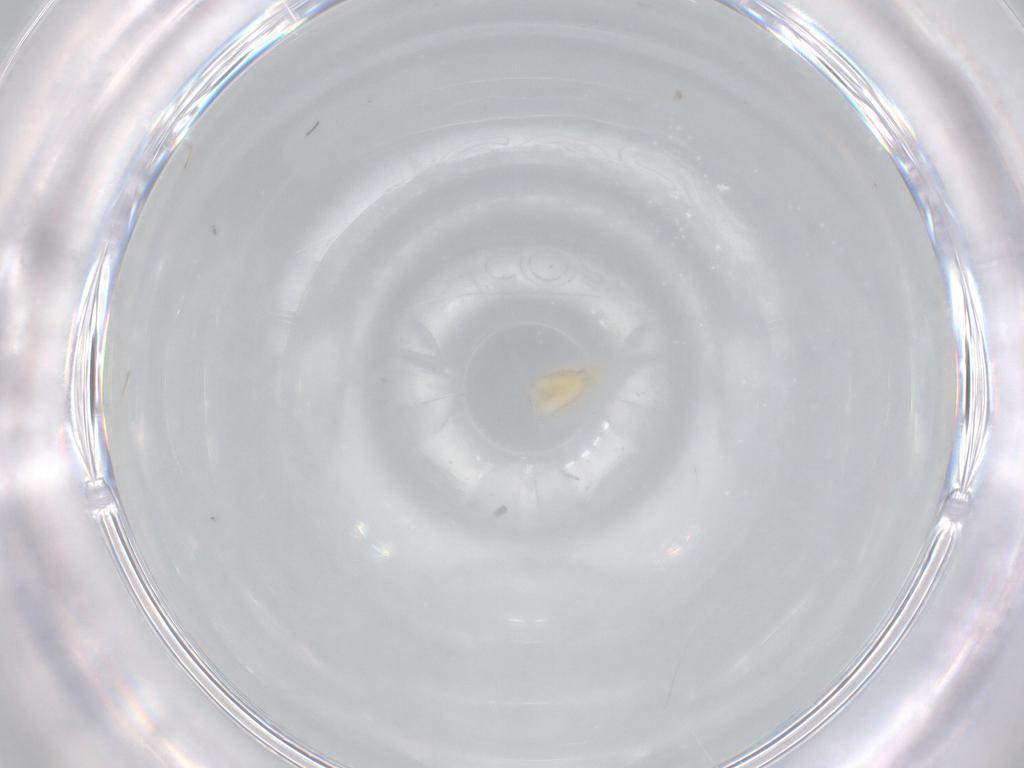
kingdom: Animalia
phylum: Arthropoda
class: Insecta
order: Diptera
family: Cecidomyiidae
